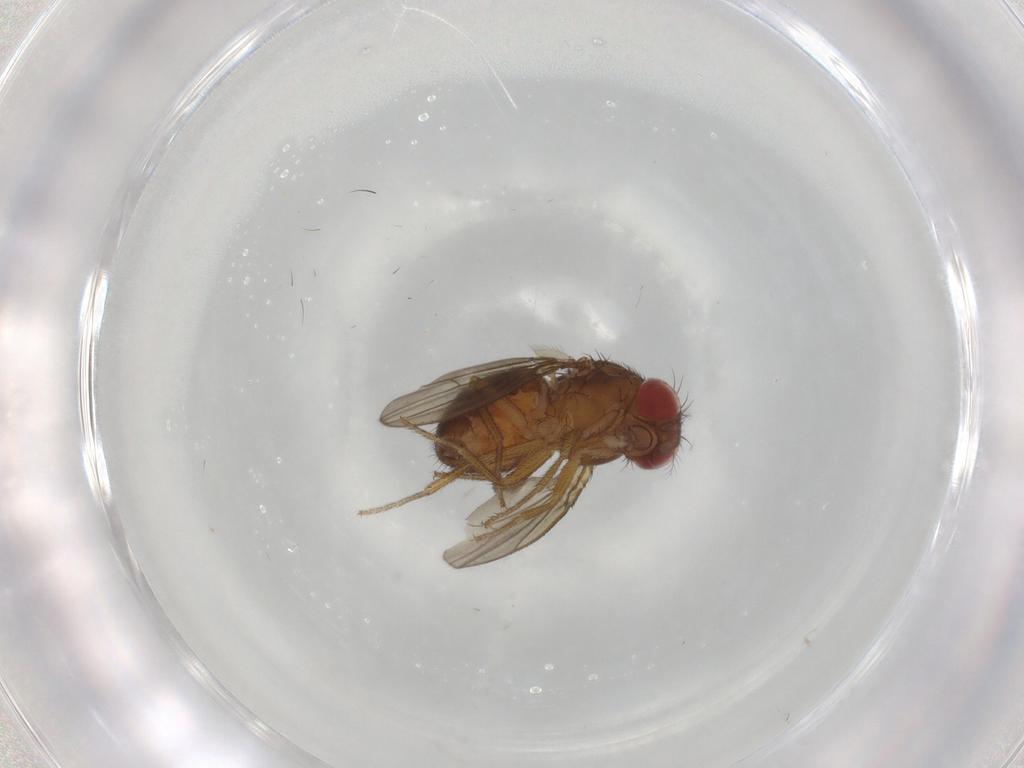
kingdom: Animalia
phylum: Arthropoda
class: Insecta
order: Diptera
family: Drosophilidae
